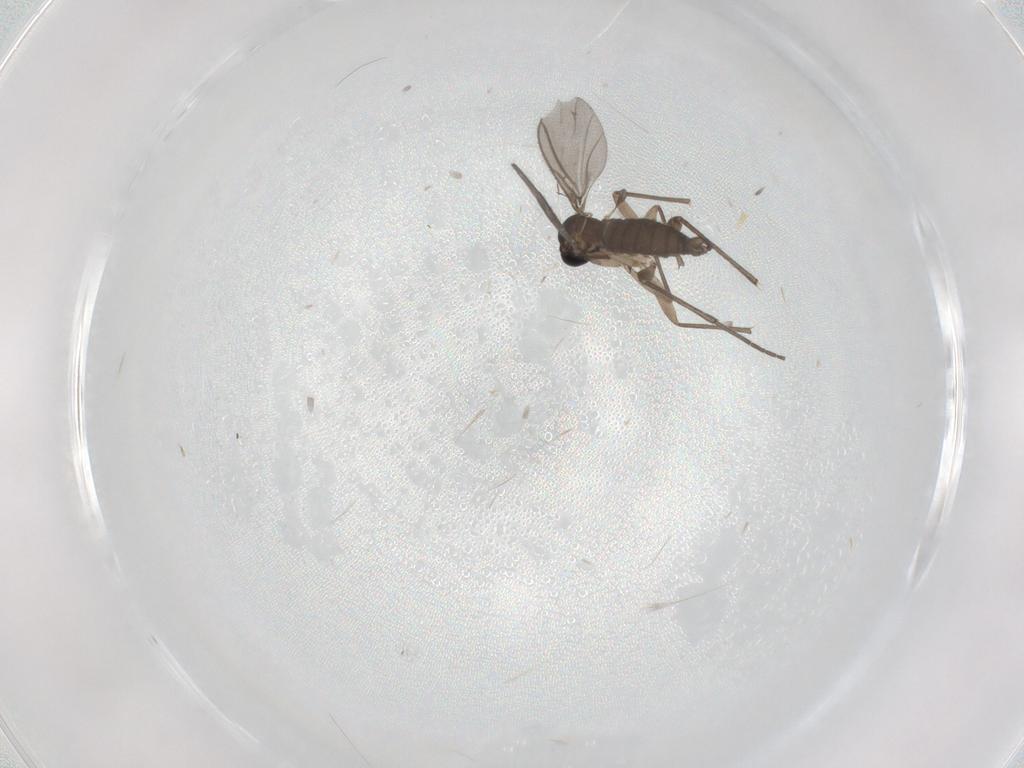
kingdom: Animalia
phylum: Arthropoda
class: Insecta
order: Diptera
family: Sciaridae
